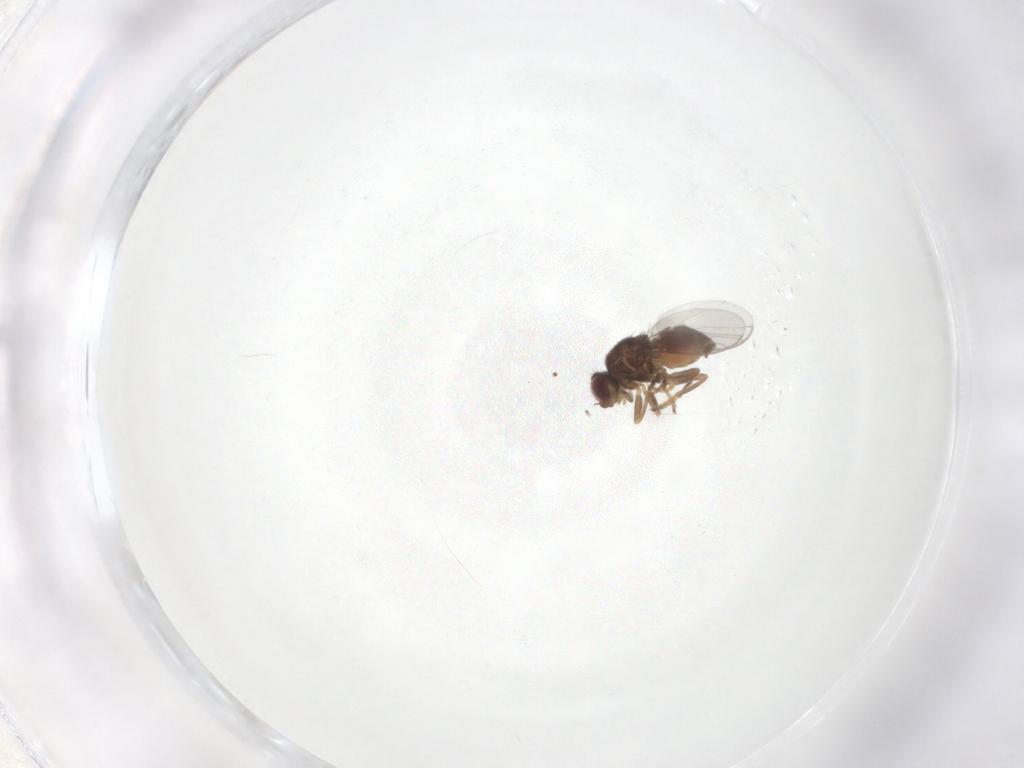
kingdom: Animalia
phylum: Arthropoda
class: Insecta
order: Diptera
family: Chloropidae
